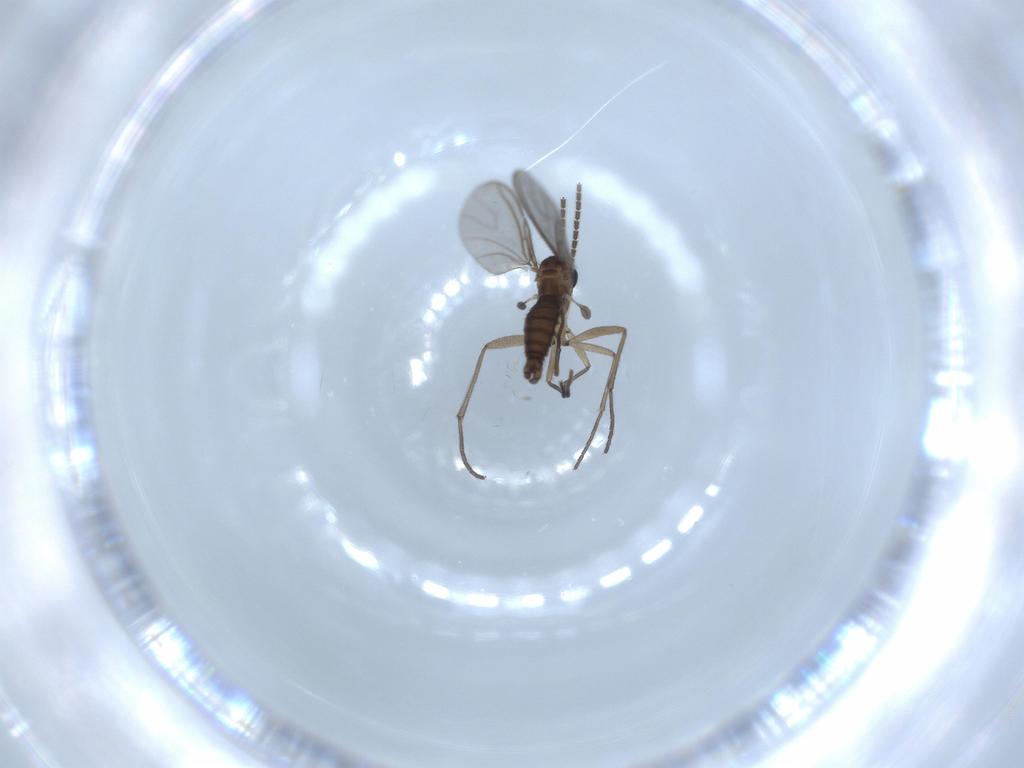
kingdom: Animalia
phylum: Arthropoda
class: Insecta
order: Diptera
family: Sciaridae
